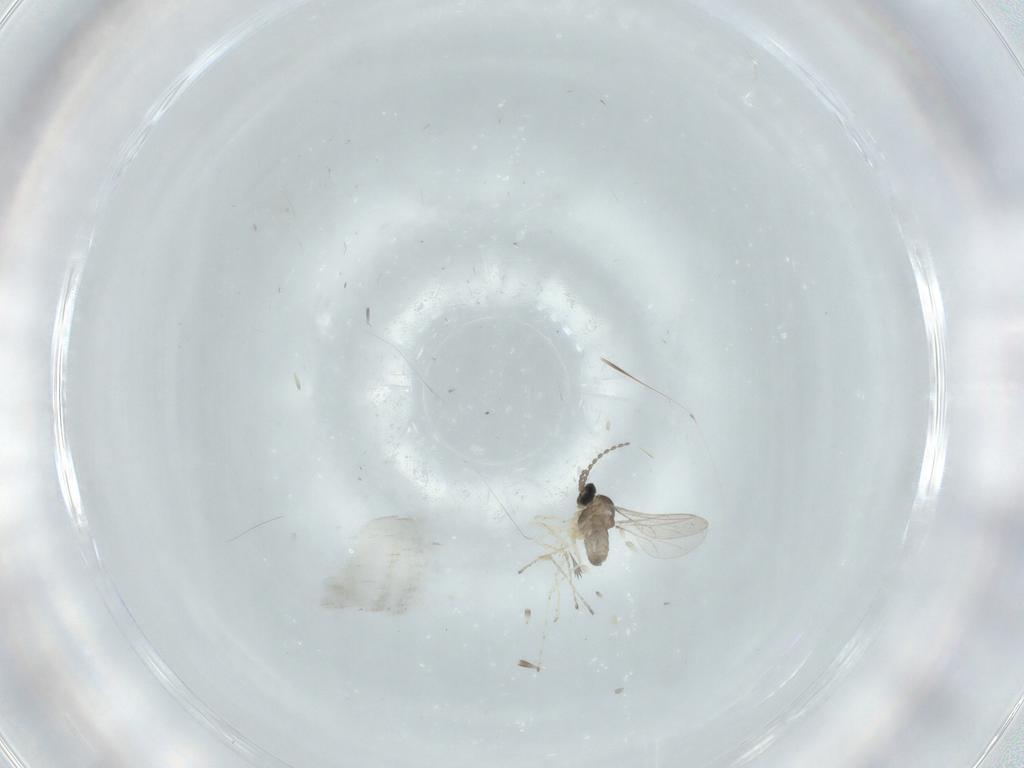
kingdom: Animalia
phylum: Arthropoda
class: Insecta
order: Diptera
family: Cecidomyiidae
